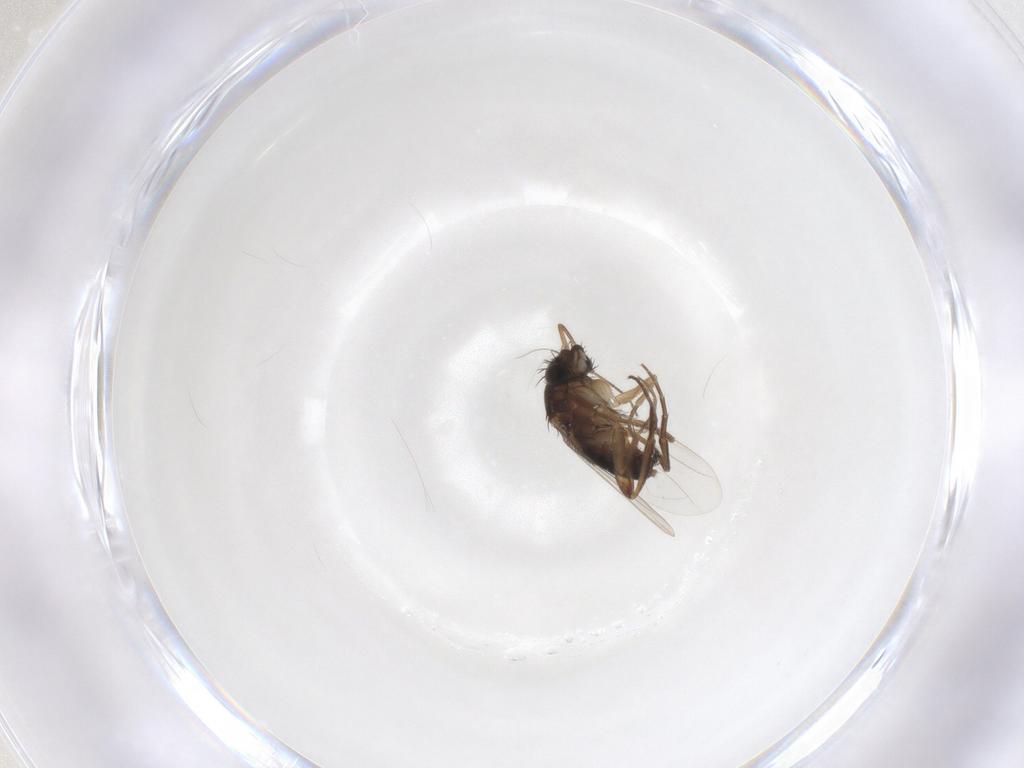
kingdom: Animalia
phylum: Arthropoda
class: Insecta
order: Diptera
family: Phoridae
